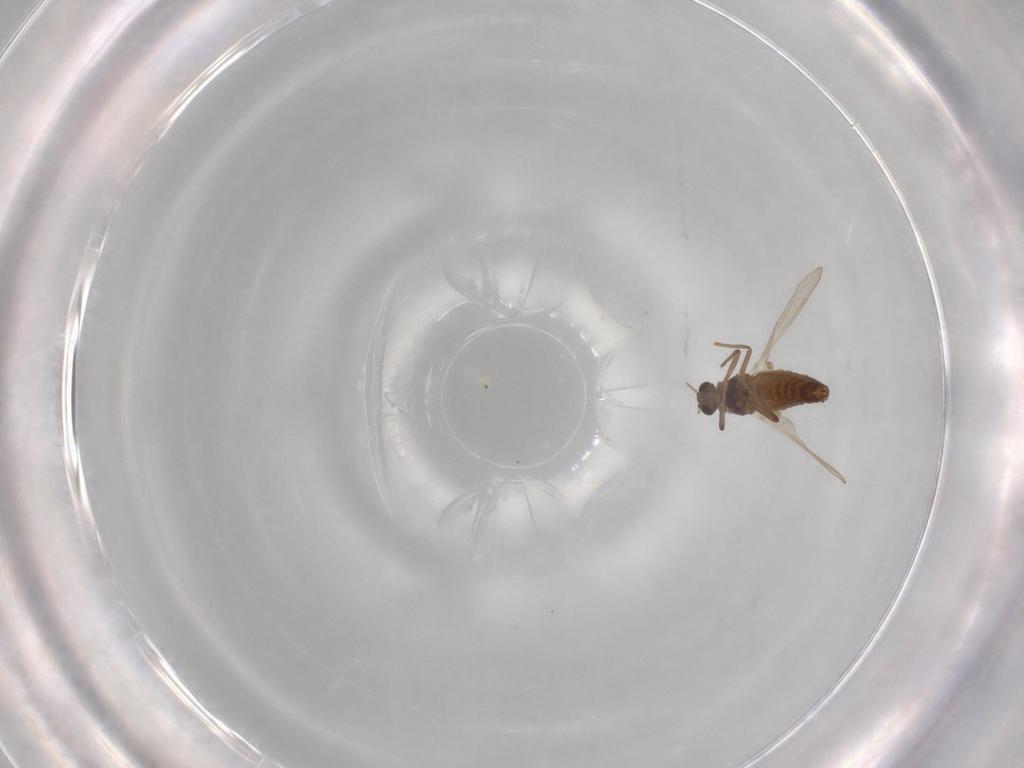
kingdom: Animalia
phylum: Arthropoda
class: Insecta
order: Diptera
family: Chironomidae
